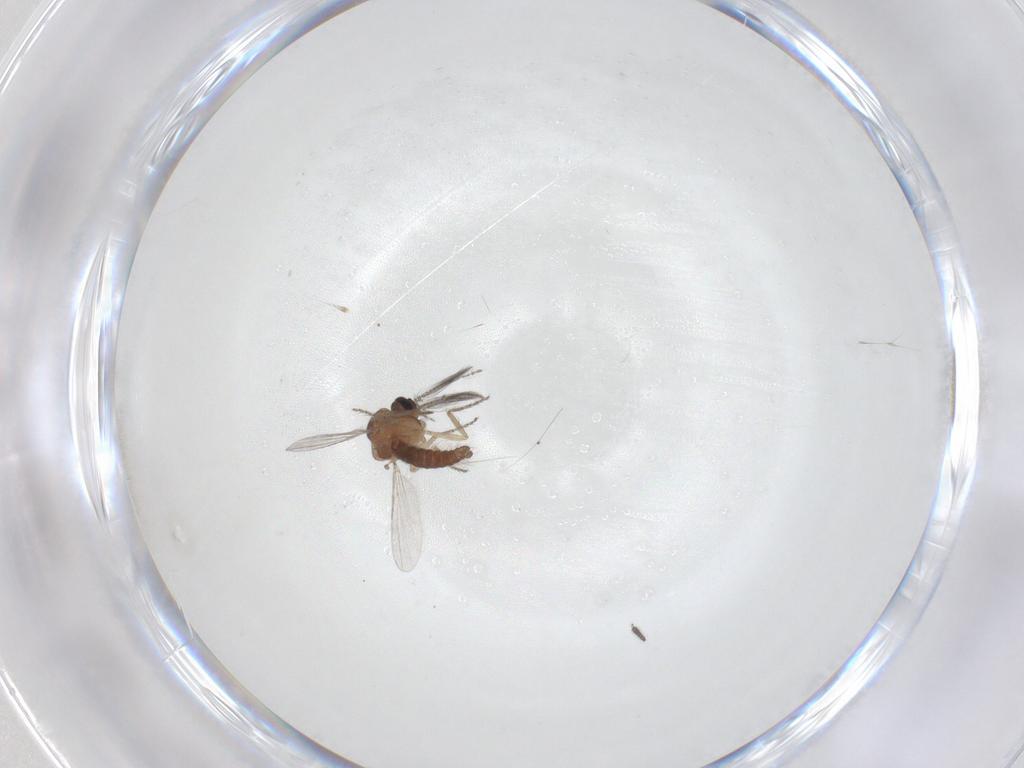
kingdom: Animalia
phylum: Arthropoda
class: Insecta
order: Diptera
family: Ceratopogonidae
